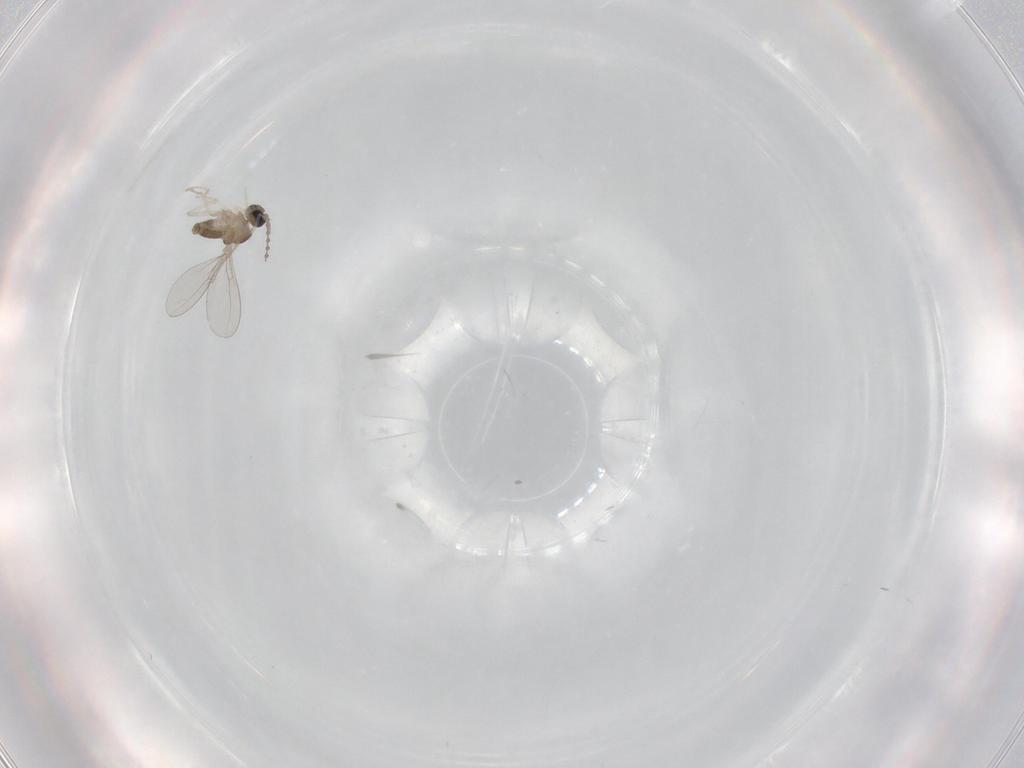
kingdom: Animalia
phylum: Arthropoda
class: Insecta
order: Diptera
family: Cecidomyiidae
